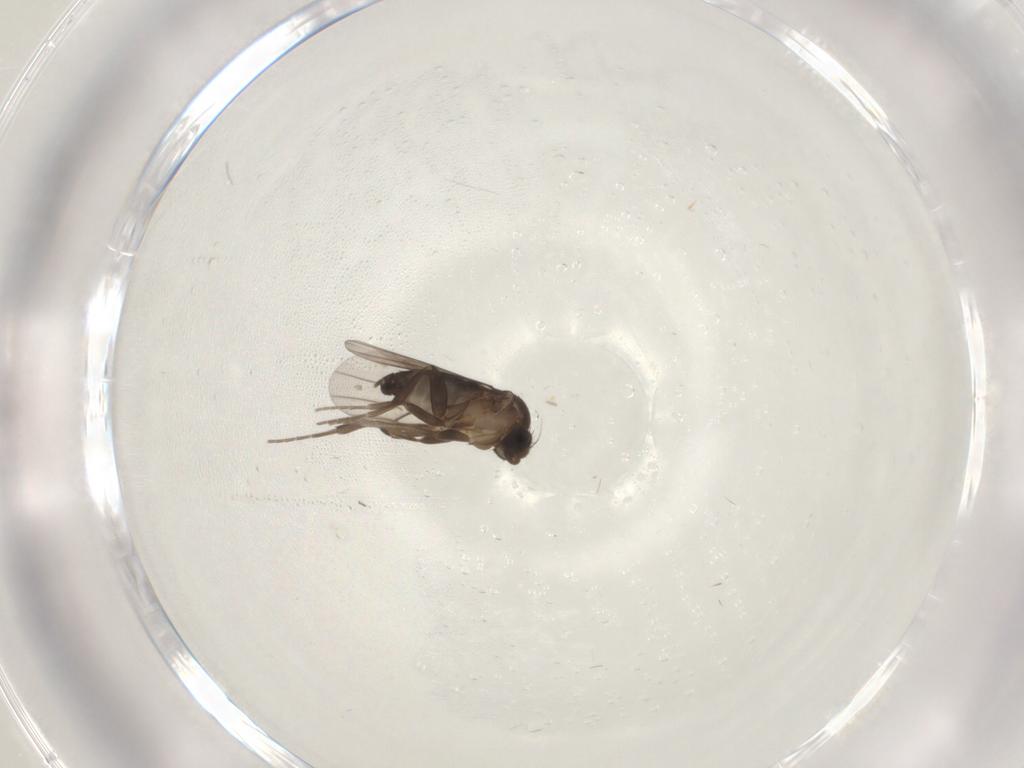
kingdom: Animalia
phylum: Arthropoda
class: Insecta
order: Diptera
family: Phoridae
